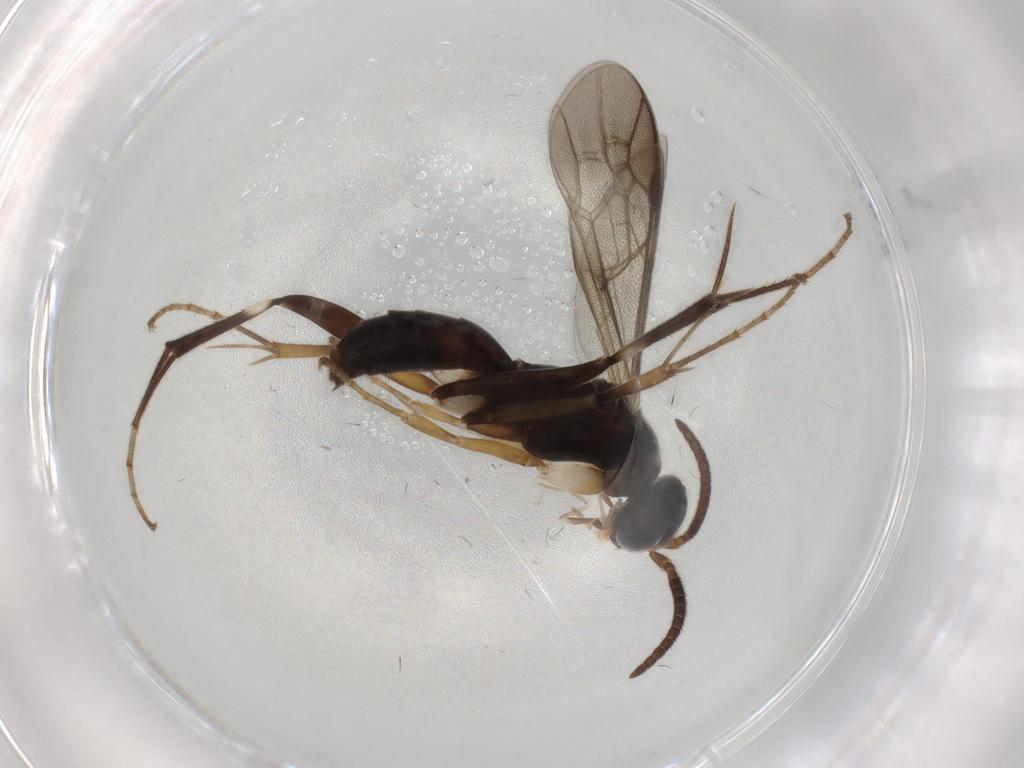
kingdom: Animalia
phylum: Arthropoda
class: Insecta
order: Hymenoptera
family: Pompilidae
